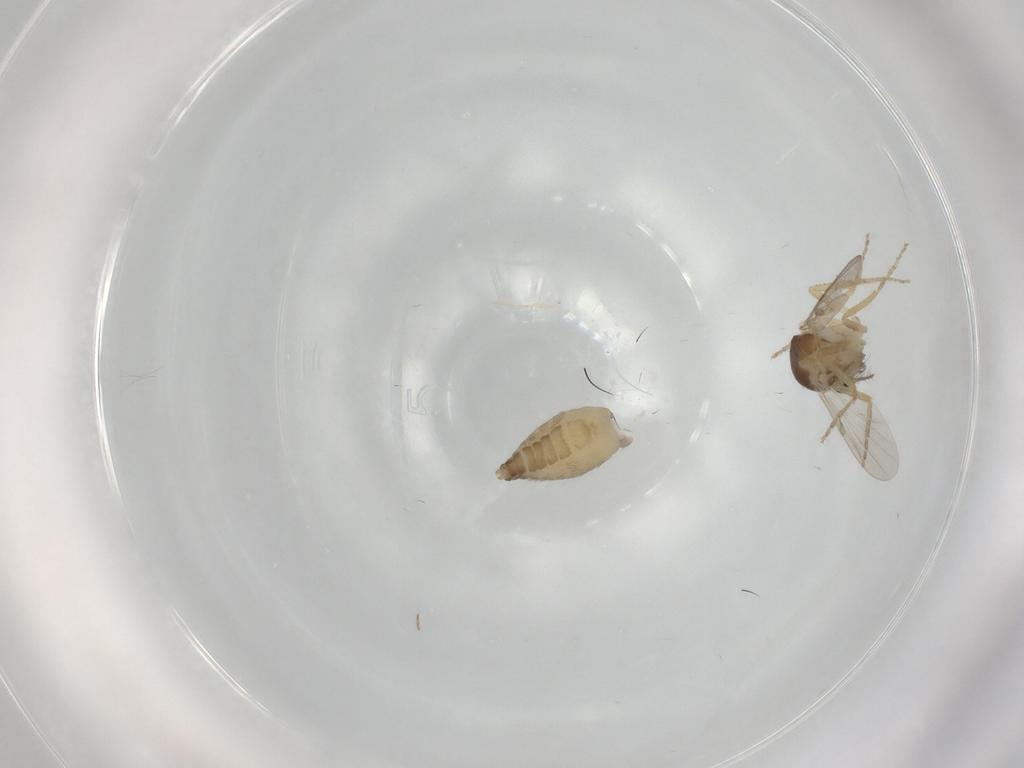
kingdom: Animalia
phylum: Arthropoda
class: Insecta
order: Diptera
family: Ceratopogonidae
